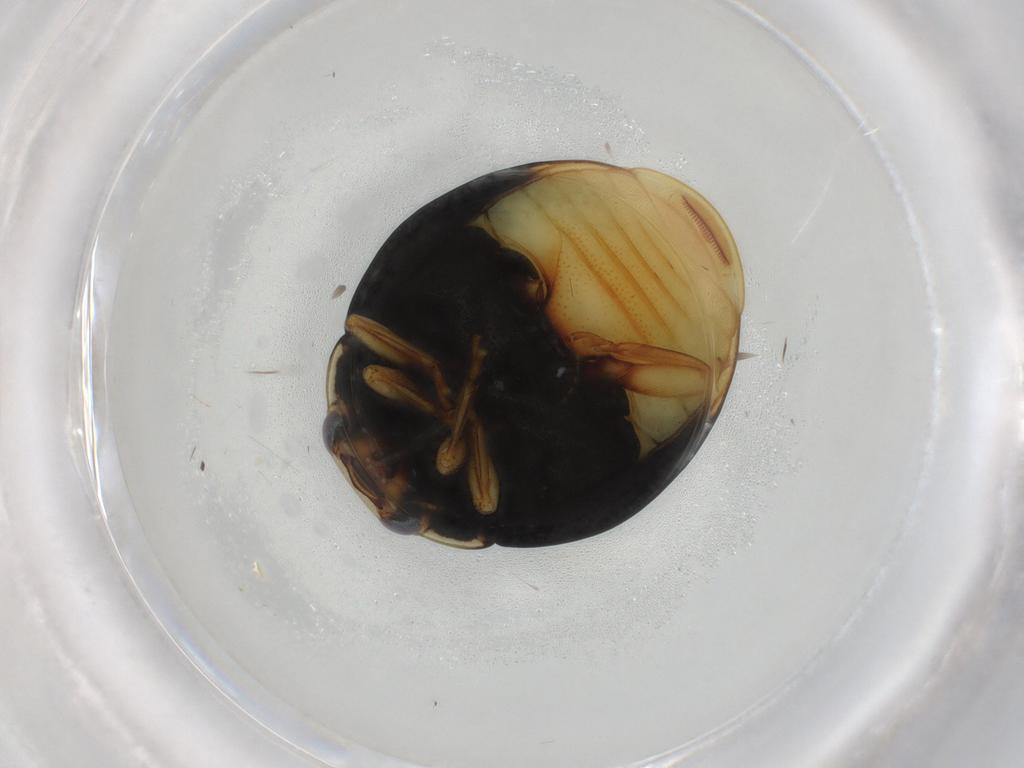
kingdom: Animalia
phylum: Arthropoda
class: Insecta
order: Coleoptera
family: Coccinellidae
